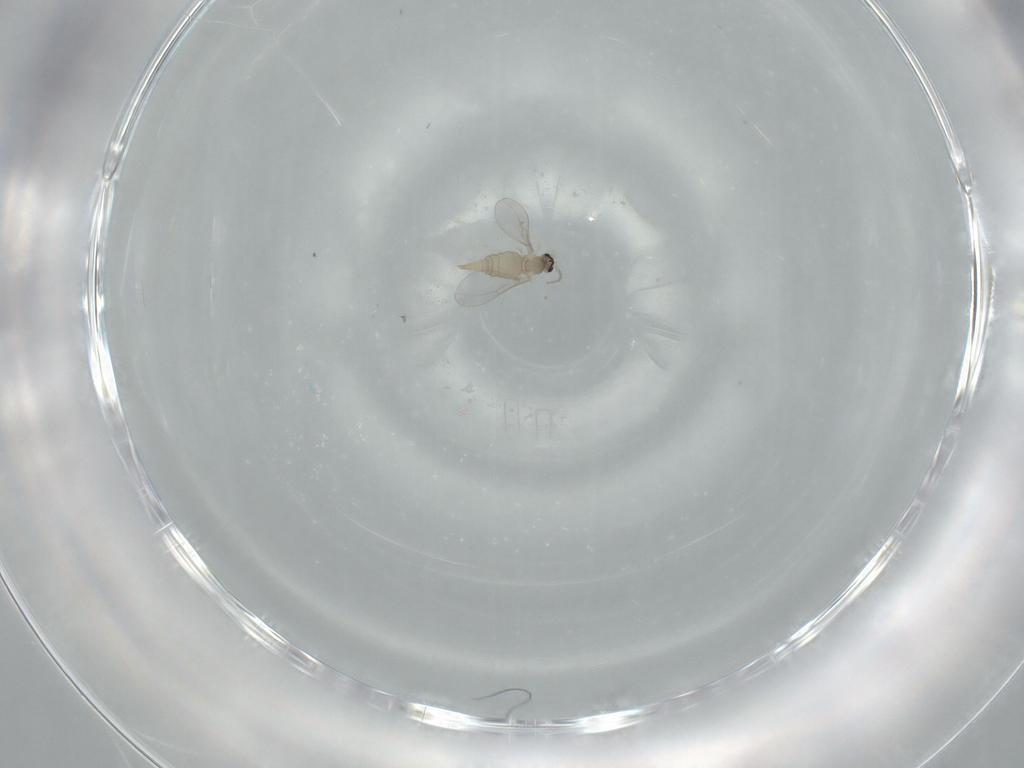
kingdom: Animalia
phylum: Arthropoda
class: Insecta
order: Diptera
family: Cecidomyiidae
